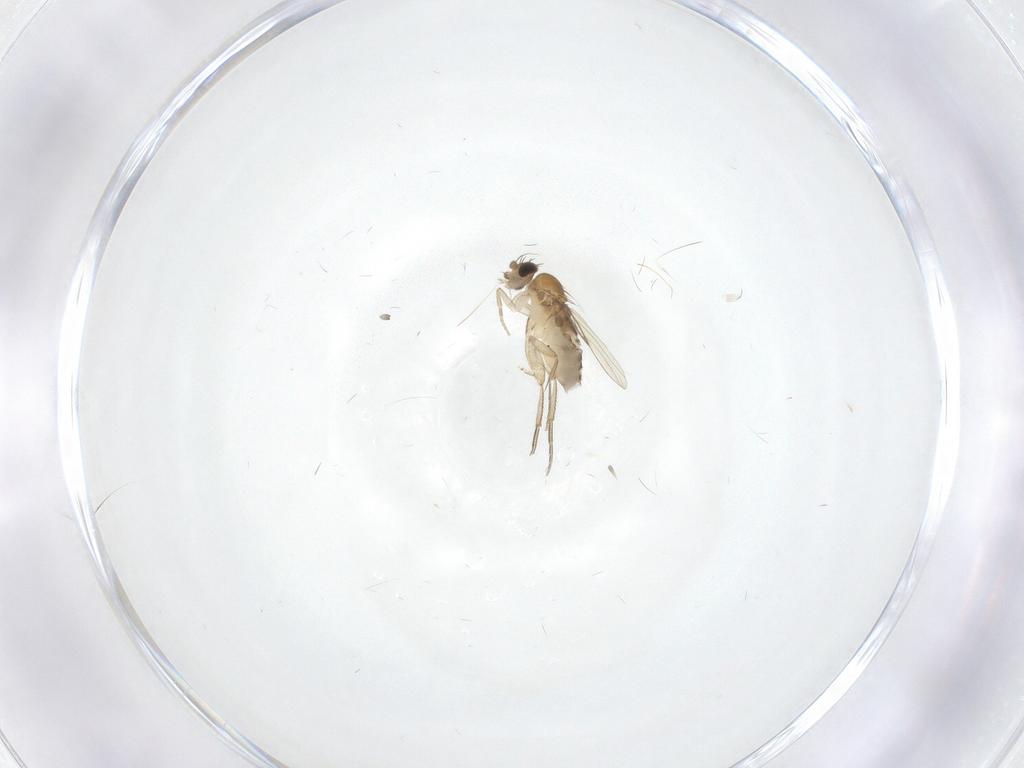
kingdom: Animalia
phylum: Arthropoda
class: Insecta
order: Diptera
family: Phoridae
